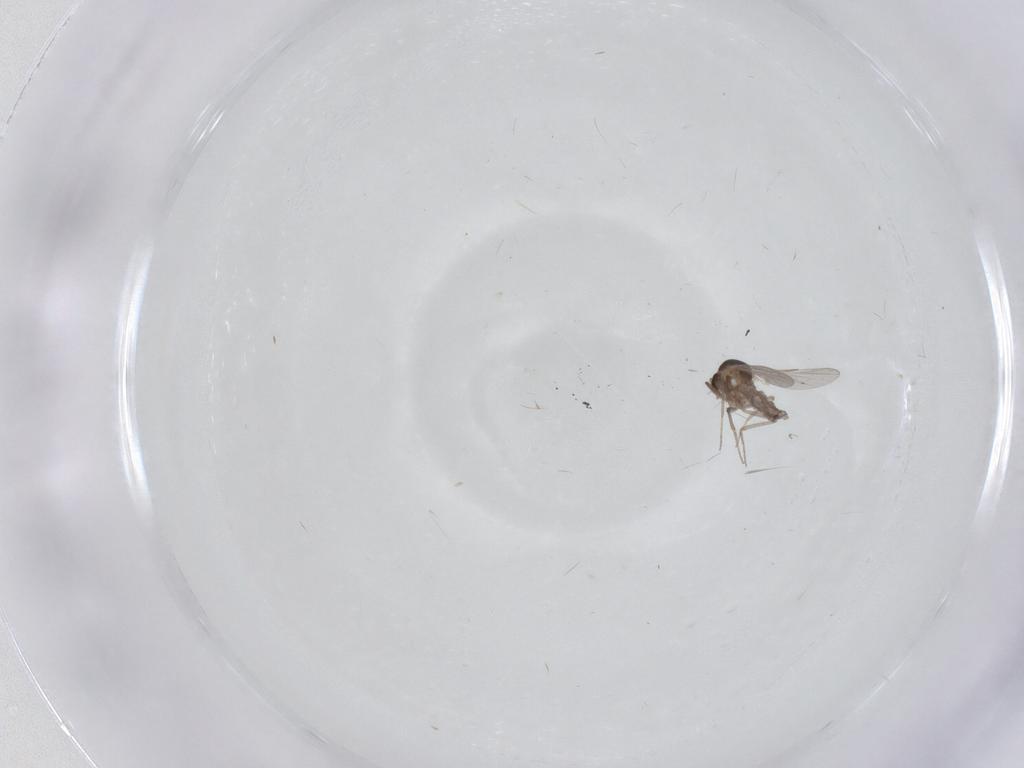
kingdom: Animalia
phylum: Arthropoda
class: Insecta
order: Diptera
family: Limoniidae
